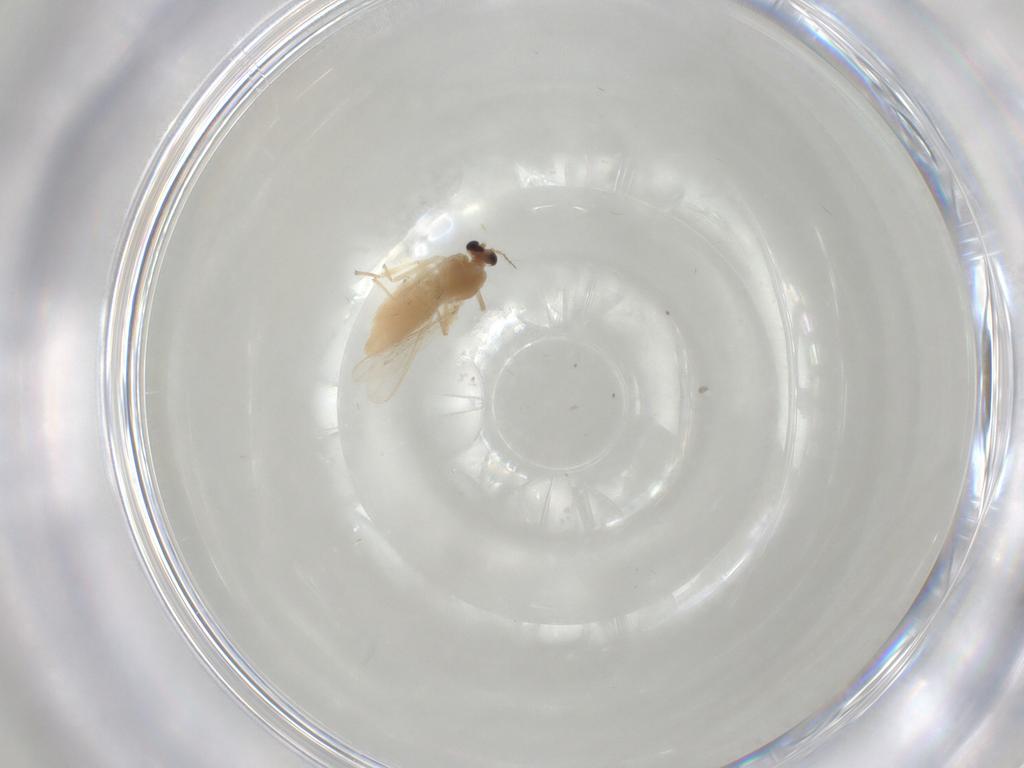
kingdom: Animalia
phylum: Arthropoda
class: Insecta
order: Diptera
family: Chironomidae
